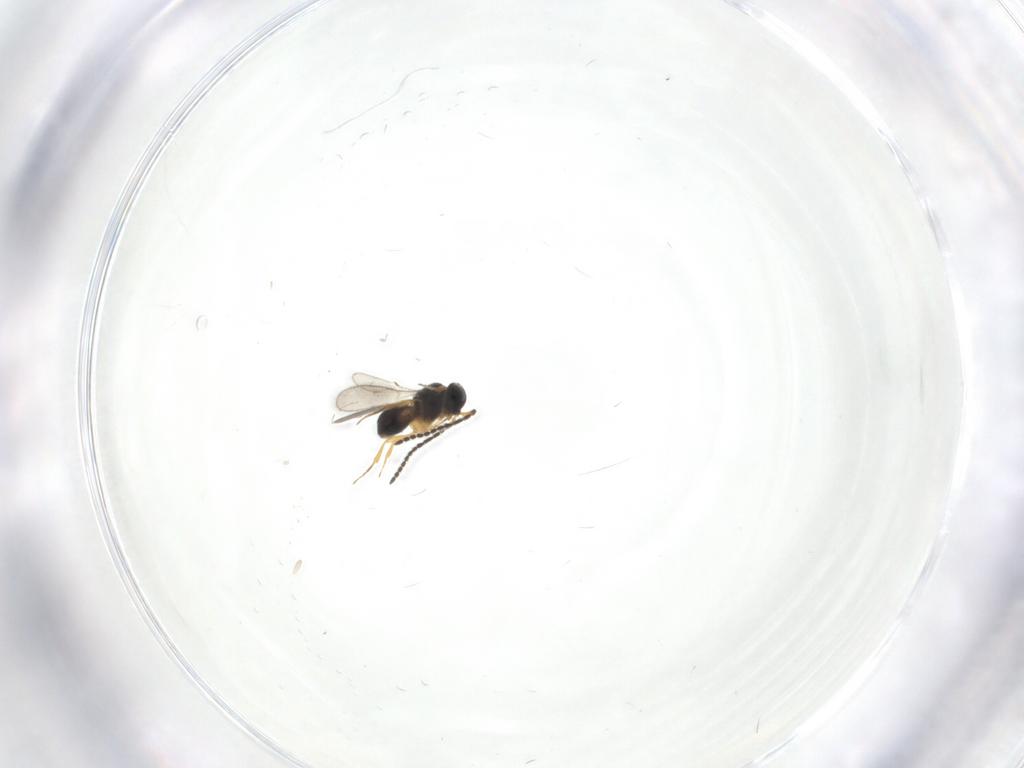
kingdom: Animalia
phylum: Arthropoda
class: Insecta
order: Hymenoptera
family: Scelionidae
